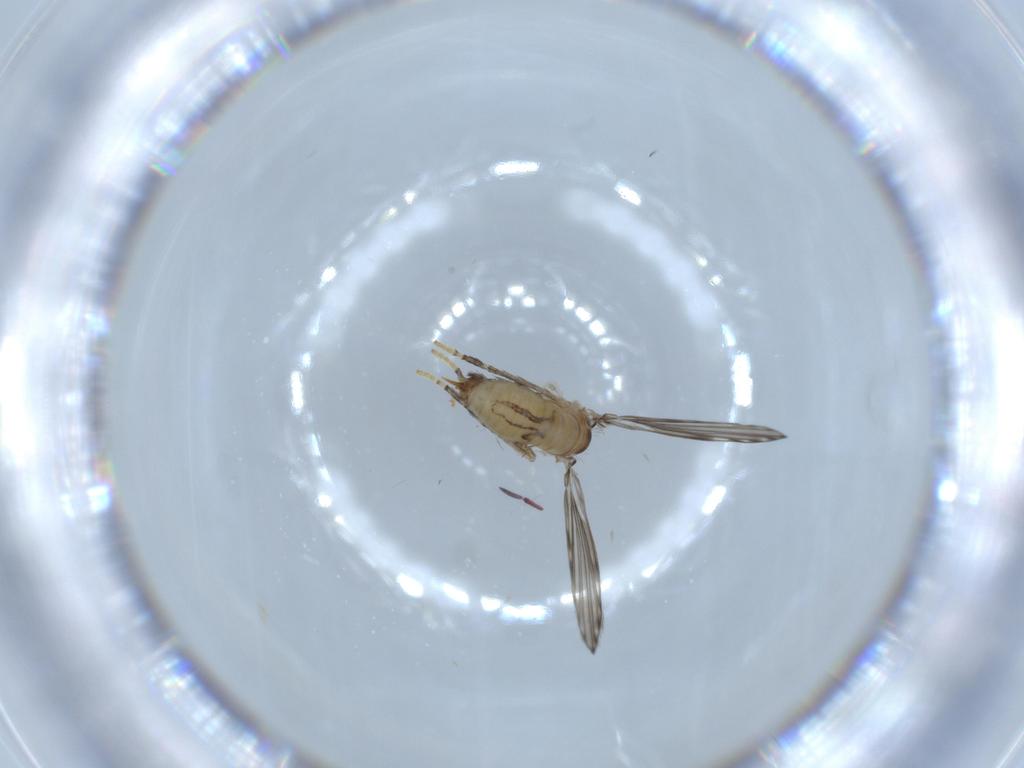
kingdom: Animalia
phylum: Arthropoda
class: Insecta
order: Diptera
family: Psychodidae
